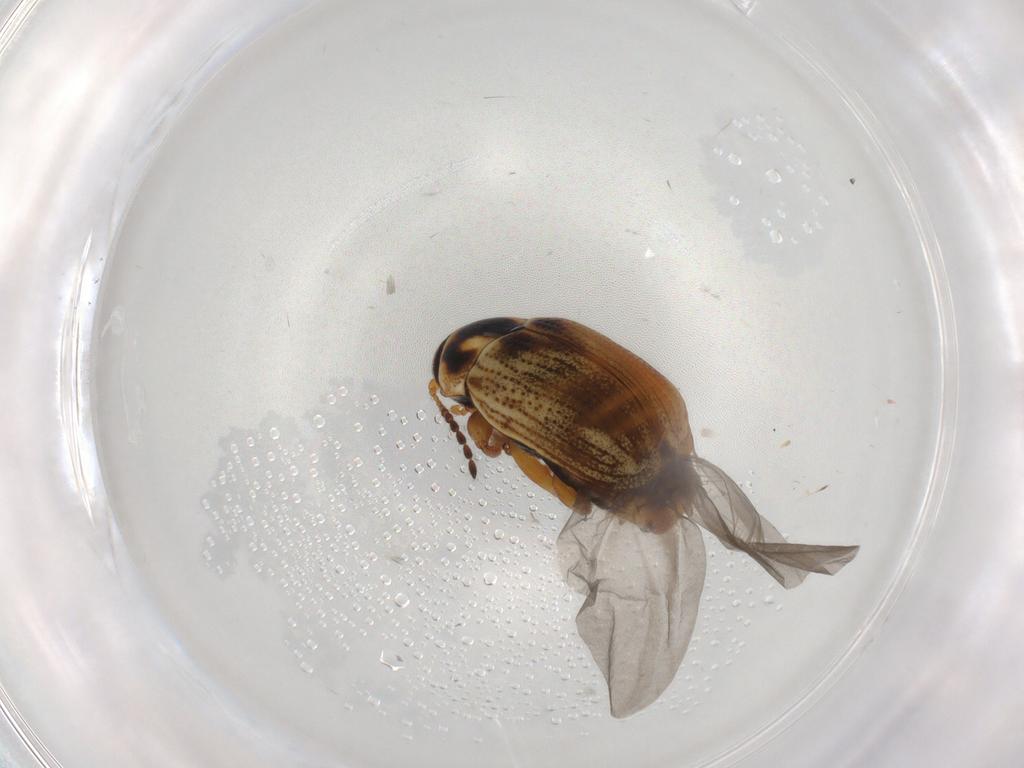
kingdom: Animalia
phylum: Arthropoda
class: Insecta
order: Coleoptera
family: Chrysomelidae
